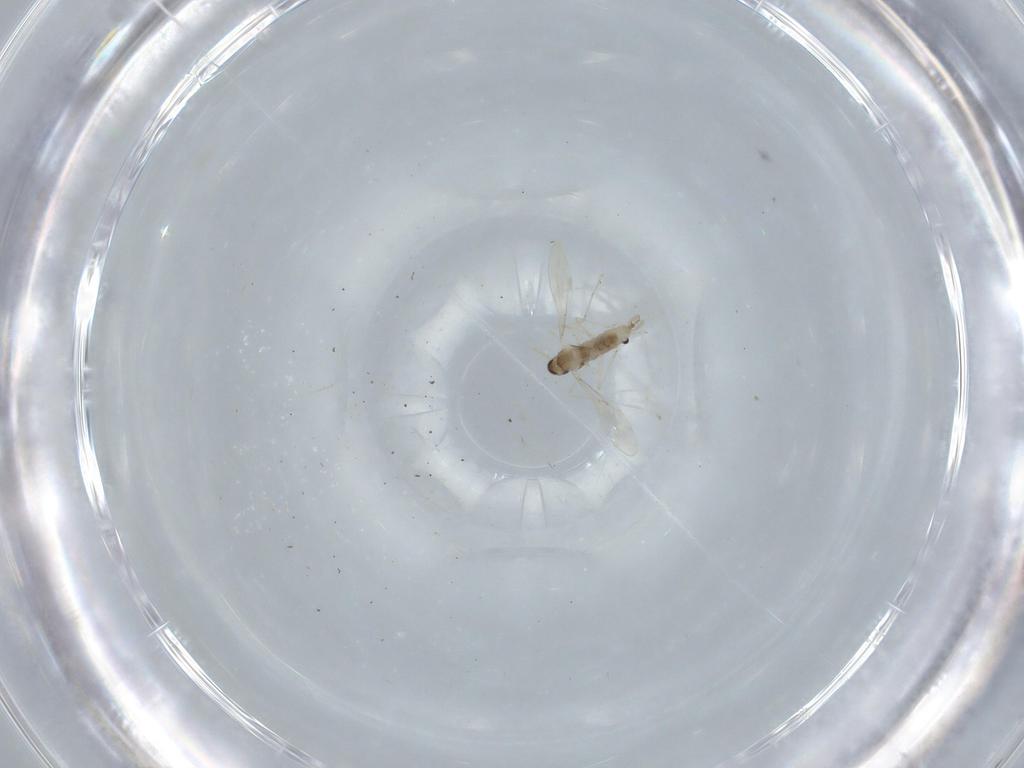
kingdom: Animalia
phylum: Arthropoda
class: Insecta
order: Diptera
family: Cecidomyiidae
